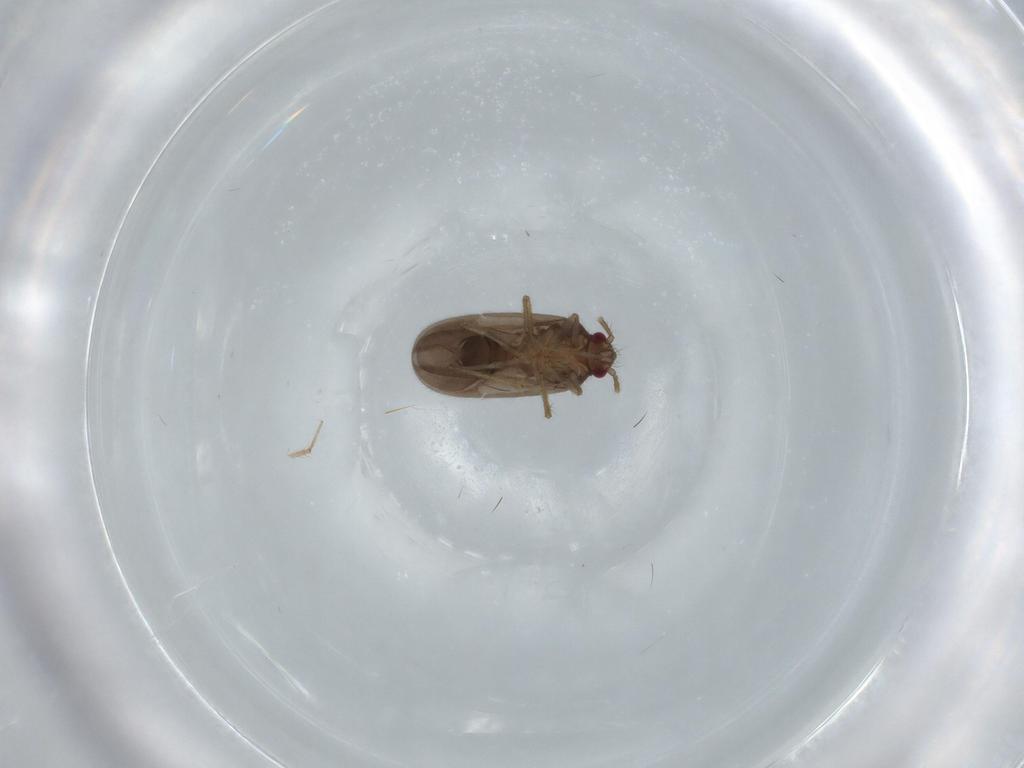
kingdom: Animalia
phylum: Arthropoda
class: Insecta
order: Hemiptera
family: Ceratocombidae
